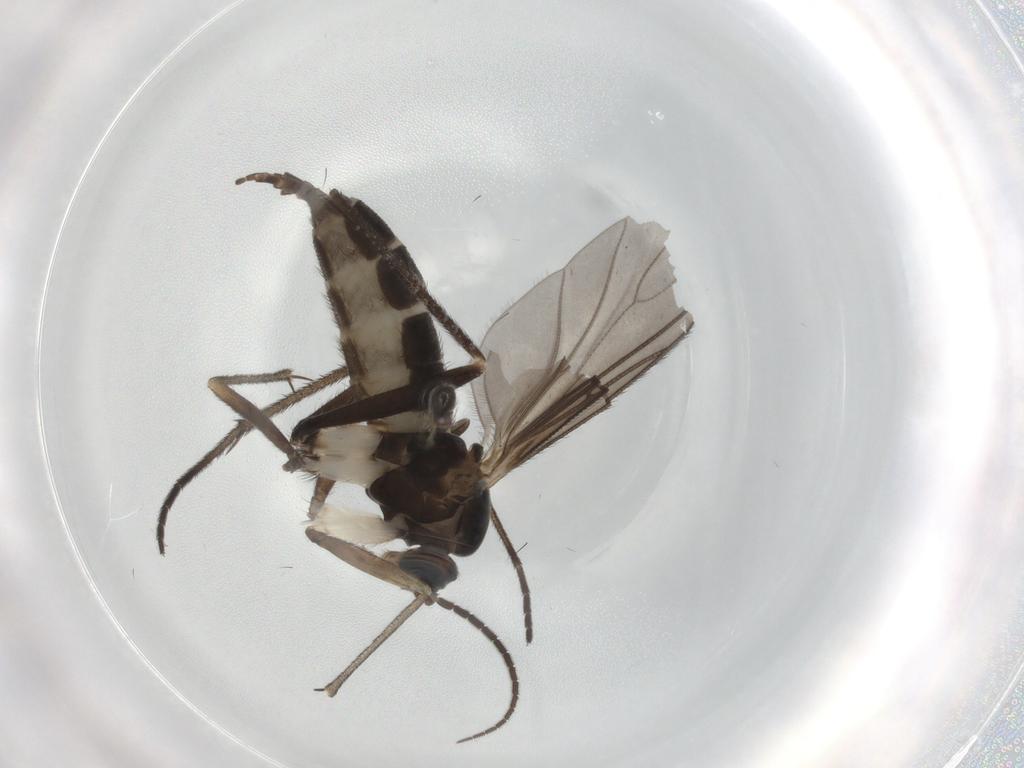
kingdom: Animalia
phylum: Arthropoda
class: Insecta
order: Diptera
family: Sciaridae
